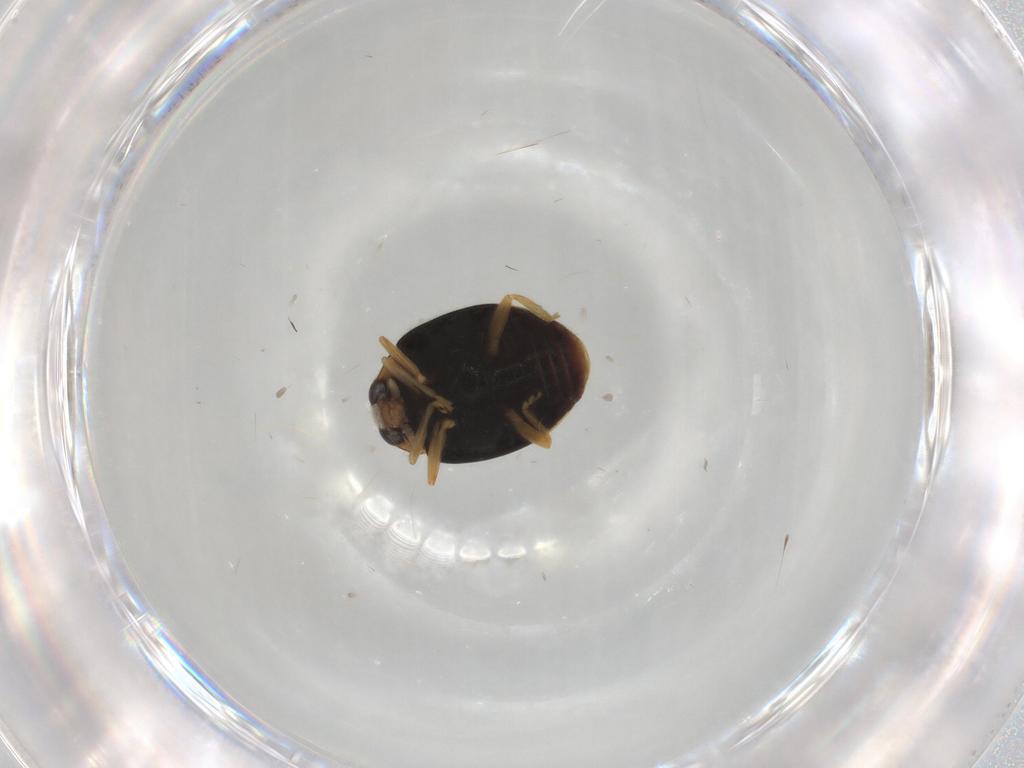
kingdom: Animalia
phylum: Arthropoda
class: Insecta
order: Coleoptera
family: Coccinellidae
